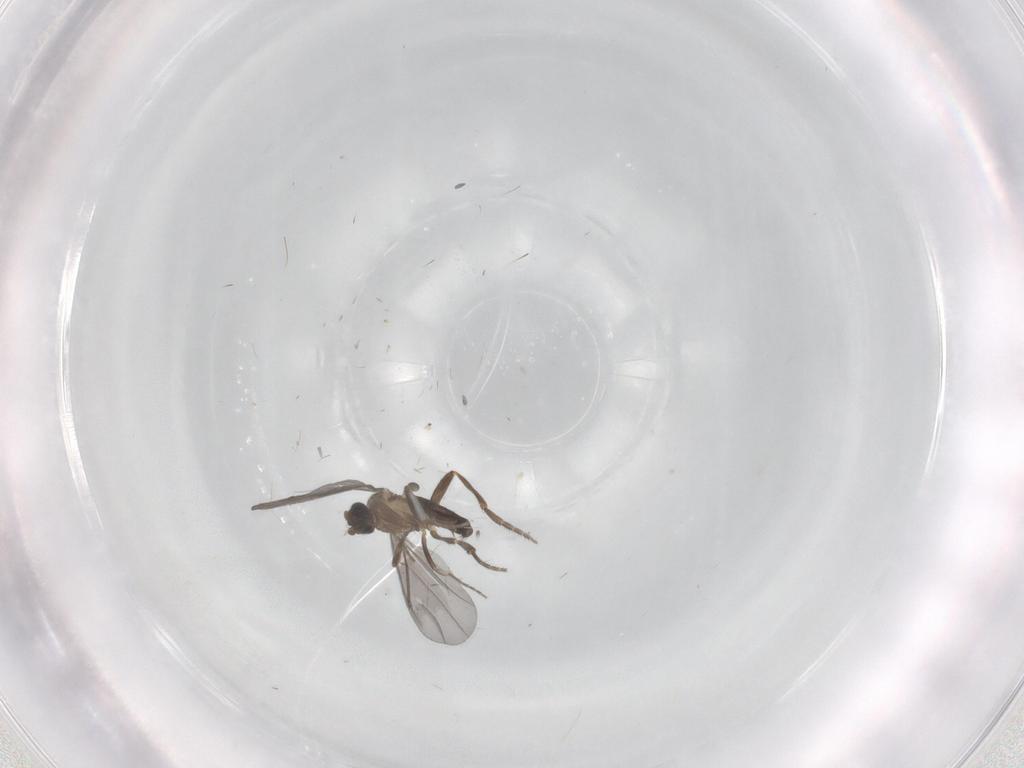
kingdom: Animalia
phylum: Arthropoda
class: Insecta
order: Diptera
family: Phoridae
